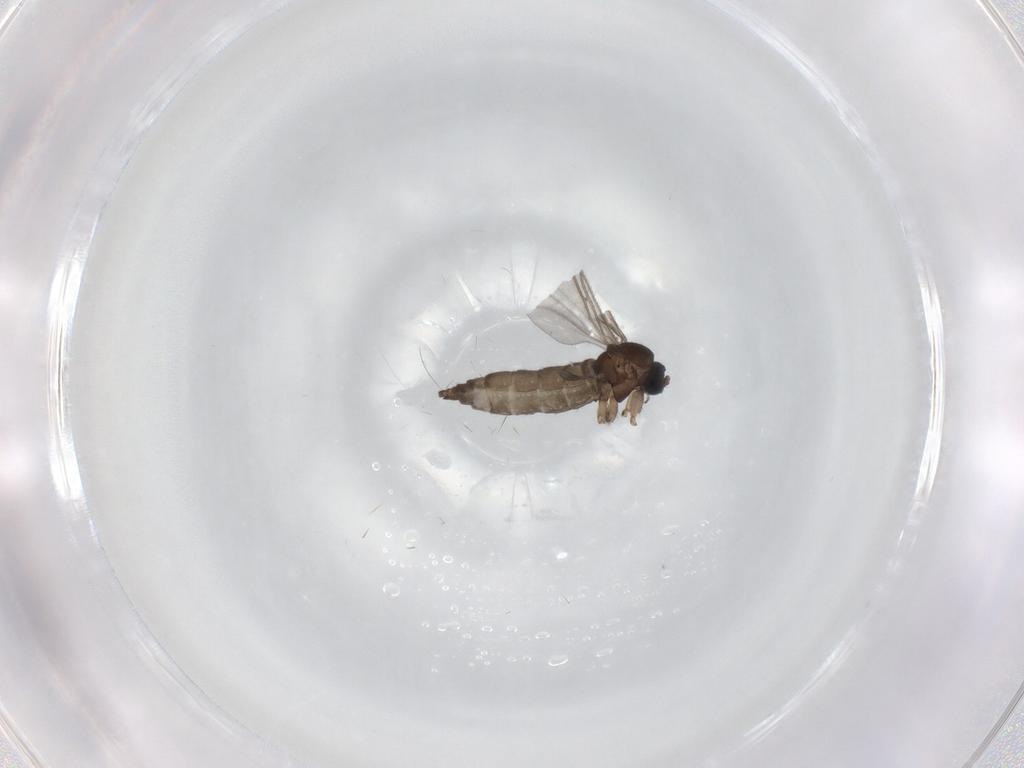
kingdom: Animalia
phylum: Arthropoda
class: Insecta
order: Diptera
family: Sciaridae
